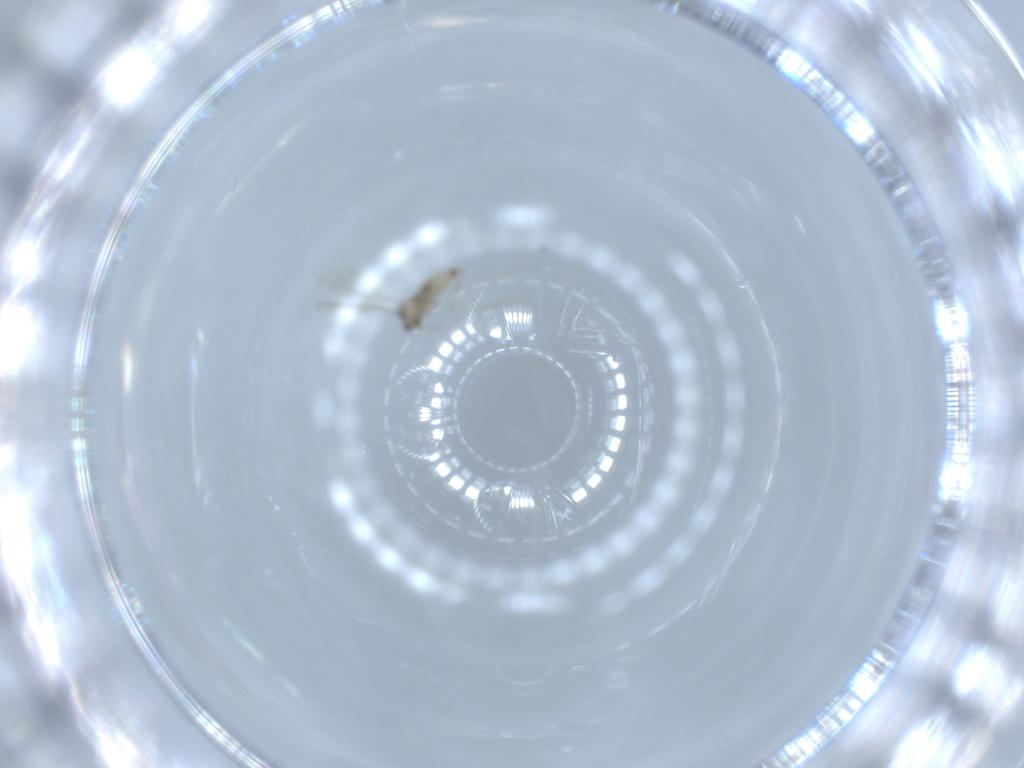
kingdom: Animalia
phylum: Arthropoda
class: Insecta
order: Diptera
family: Cecidomyiidae
